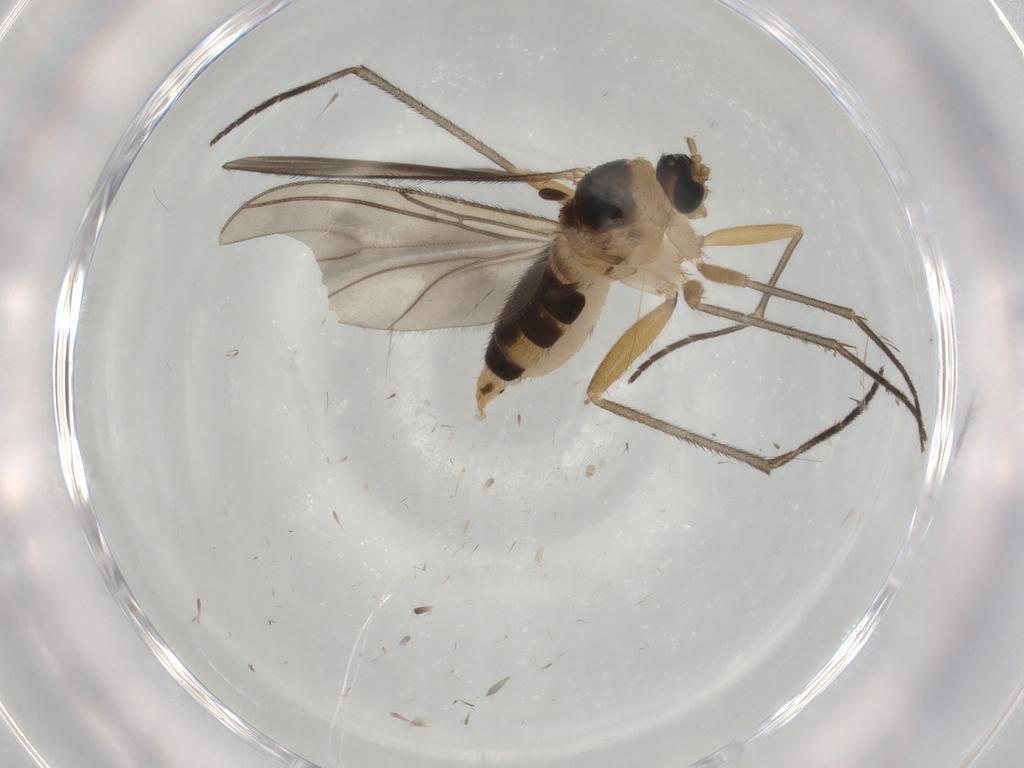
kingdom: Animalia
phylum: Arthropoda
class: Insecta
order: Diptera
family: Sciaridae
